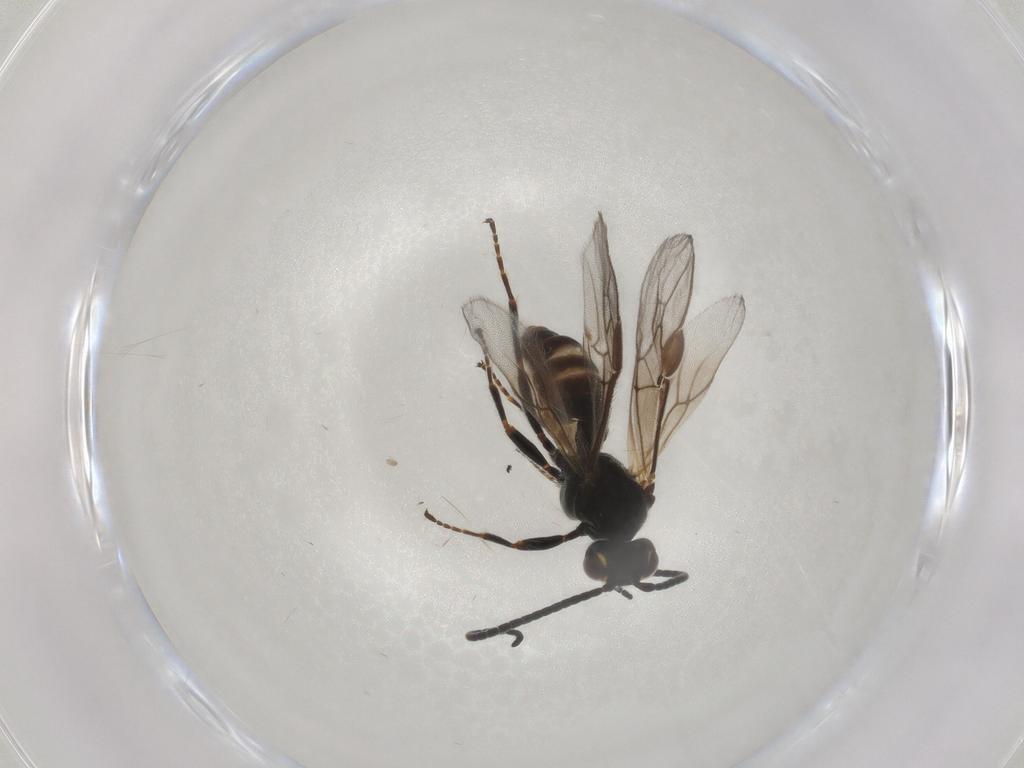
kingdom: Animalia
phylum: Arthropoda
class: Insecta
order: Hymenoptera
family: Braconidae
